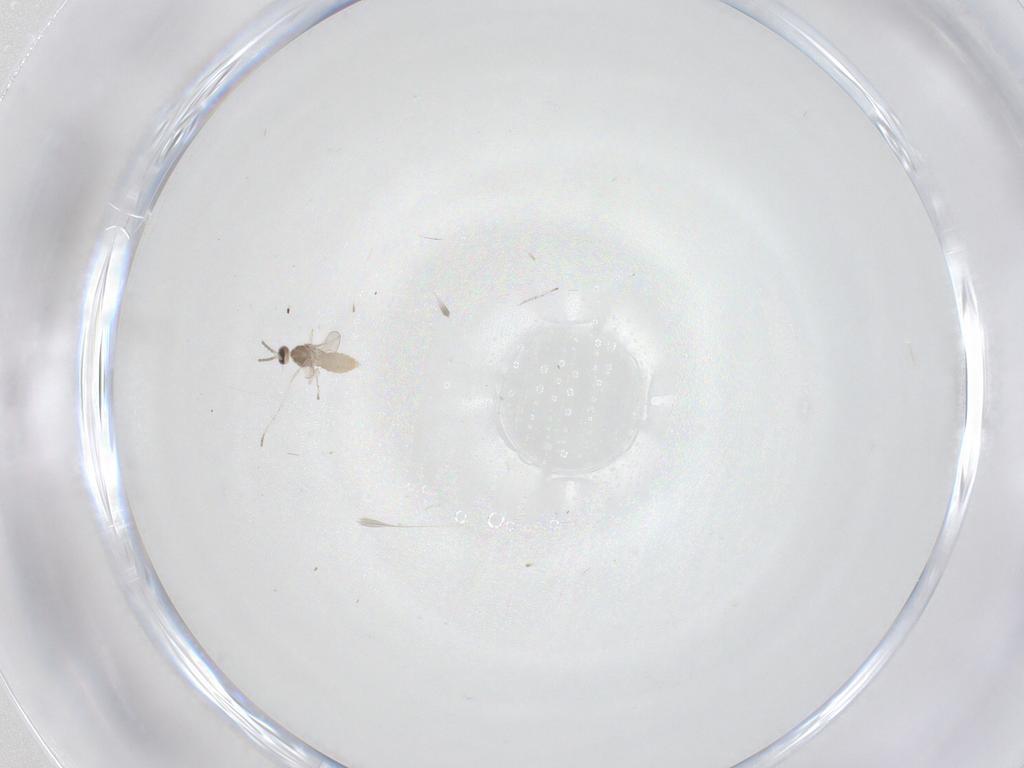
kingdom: Animalia
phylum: Arthropoda
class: Insecta
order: Diptera
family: Cecidomyiidae
